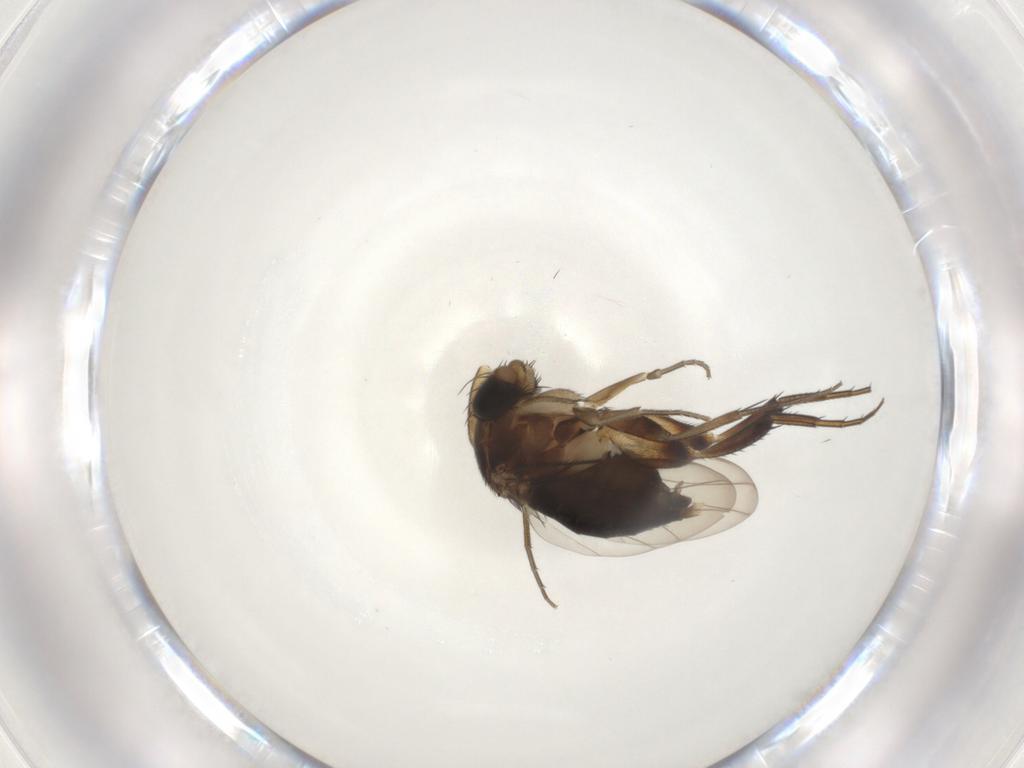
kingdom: Animalia
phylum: Arthropoda
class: Insecta
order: Diptera
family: Phoridae
